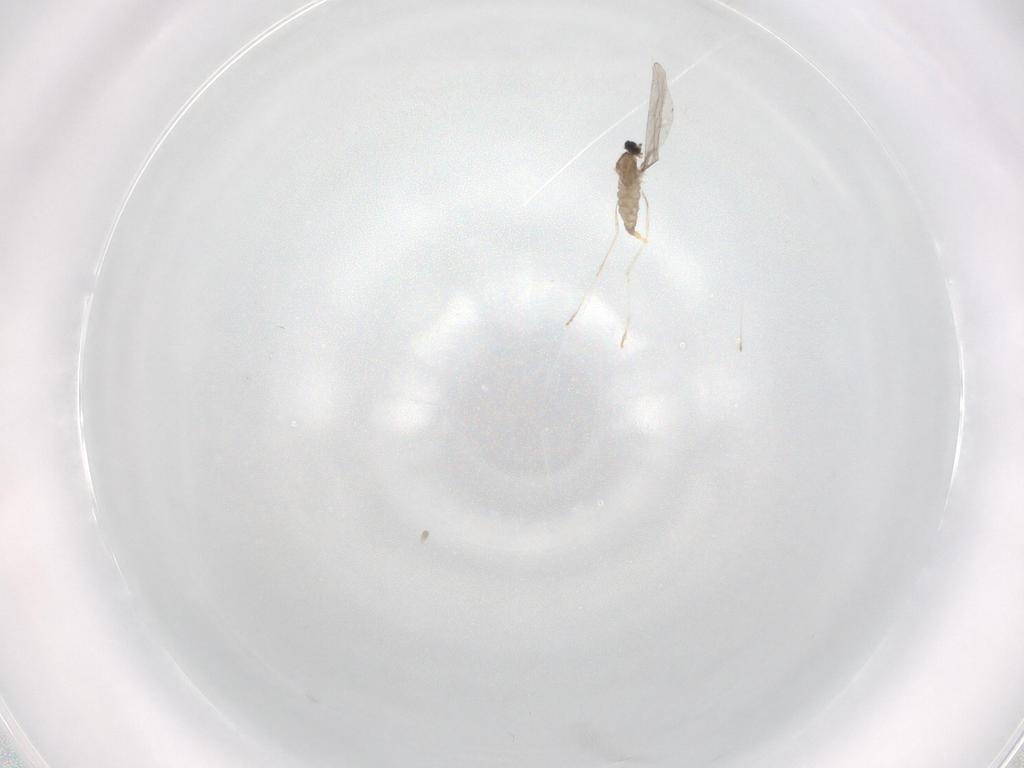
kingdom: Animalia
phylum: Arthropoda
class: Insecta
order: Diptera
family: Cecidomyiidae
